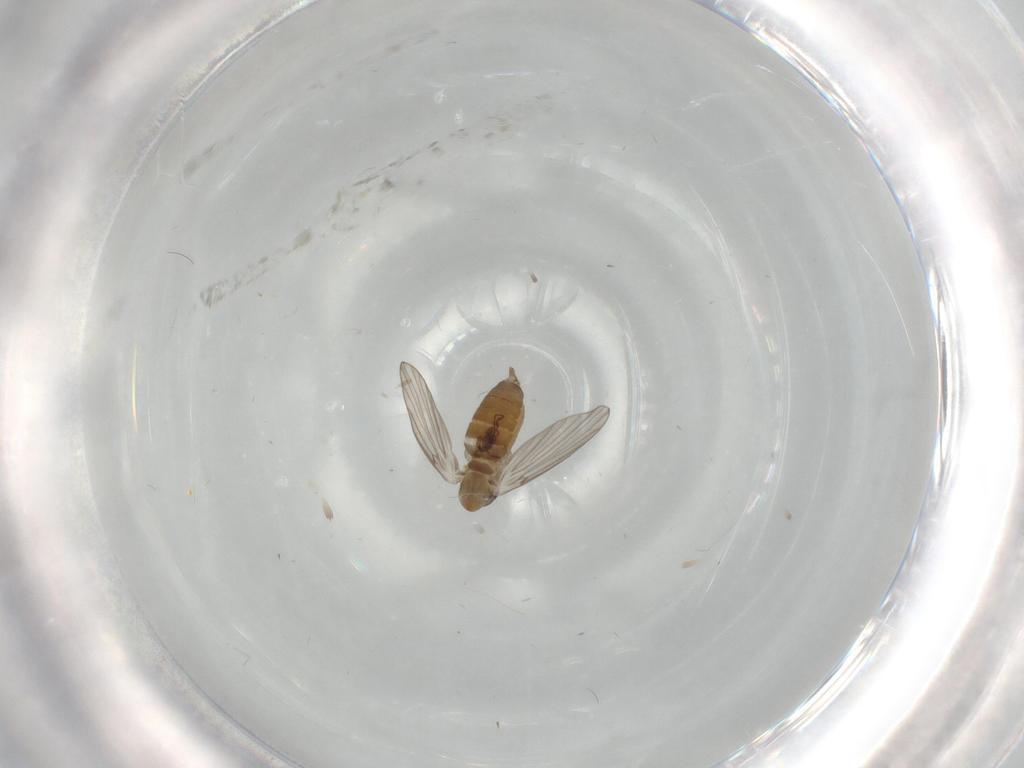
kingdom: Animalia
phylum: Arthropoda
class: Insecta
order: Diptera
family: Psychodidae
